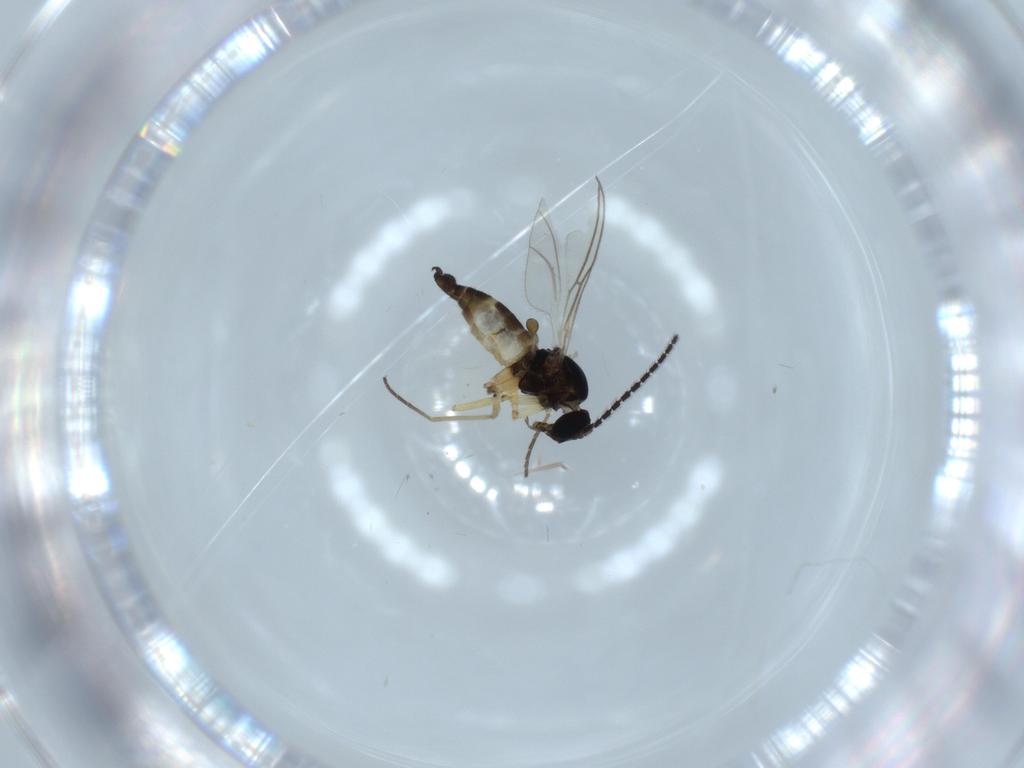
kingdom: Animalia
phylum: Arthropoda
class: Insecta
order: Diptera
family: Sciaridae
